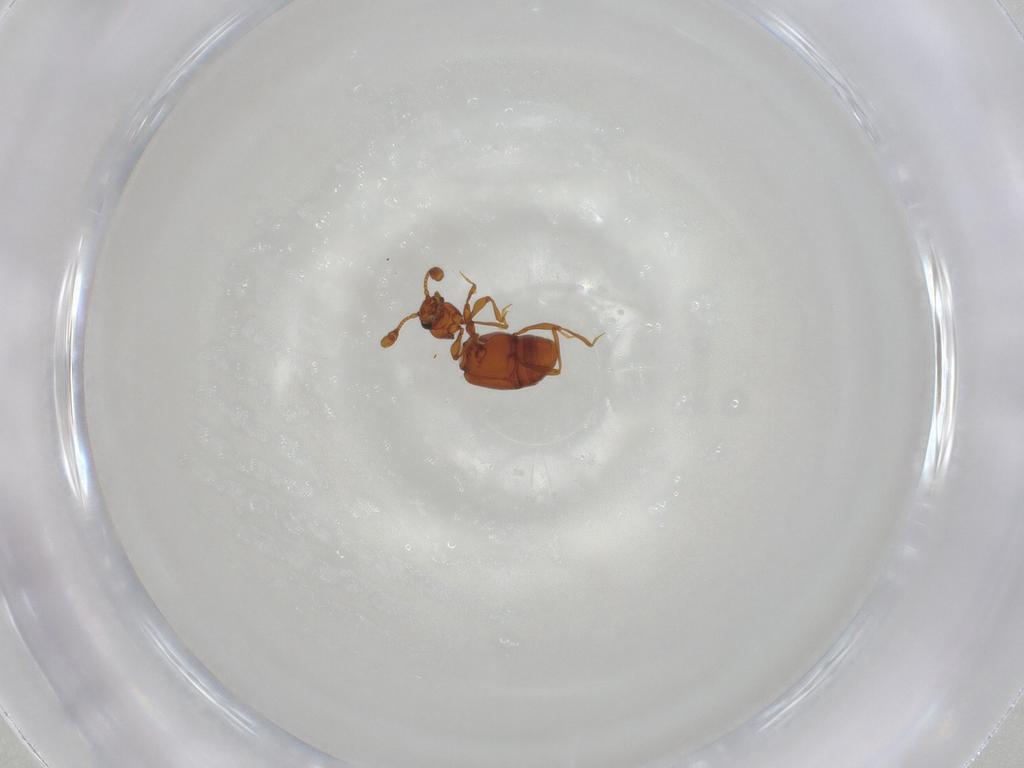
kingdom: Animalia
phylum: Arthropoda
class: Insecta
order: Coleoptera
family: Staphylinidae
